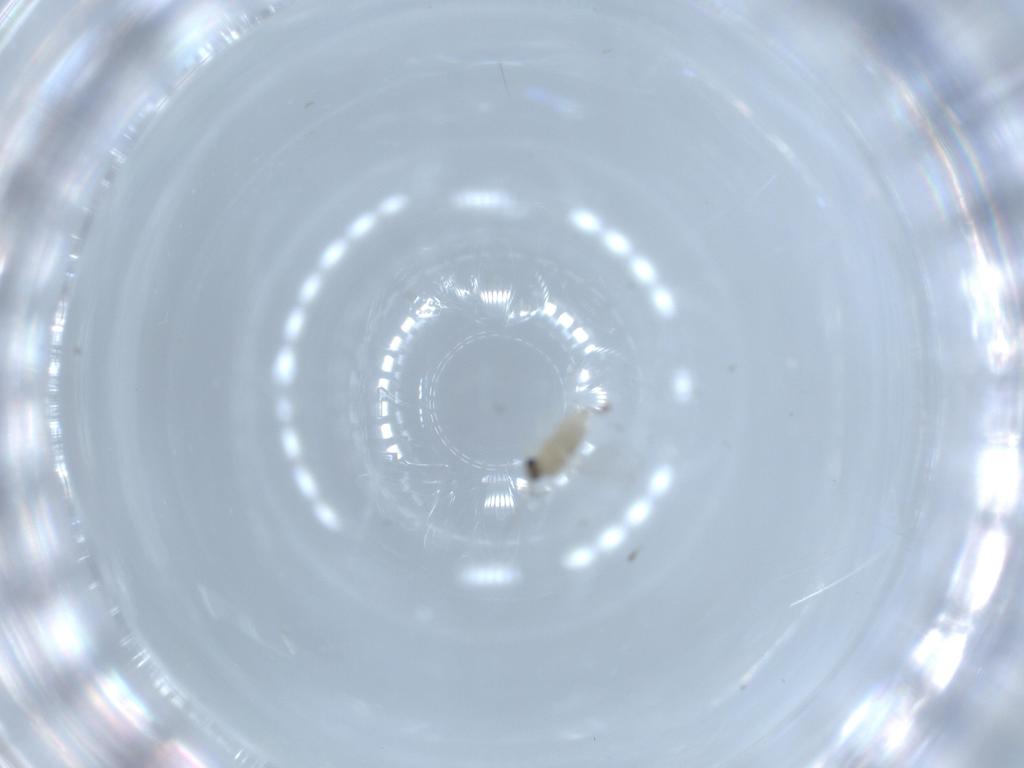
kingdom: Animalia
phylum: Arthropoda
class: Insecta
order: Diptera
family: Cecidomyiidae
